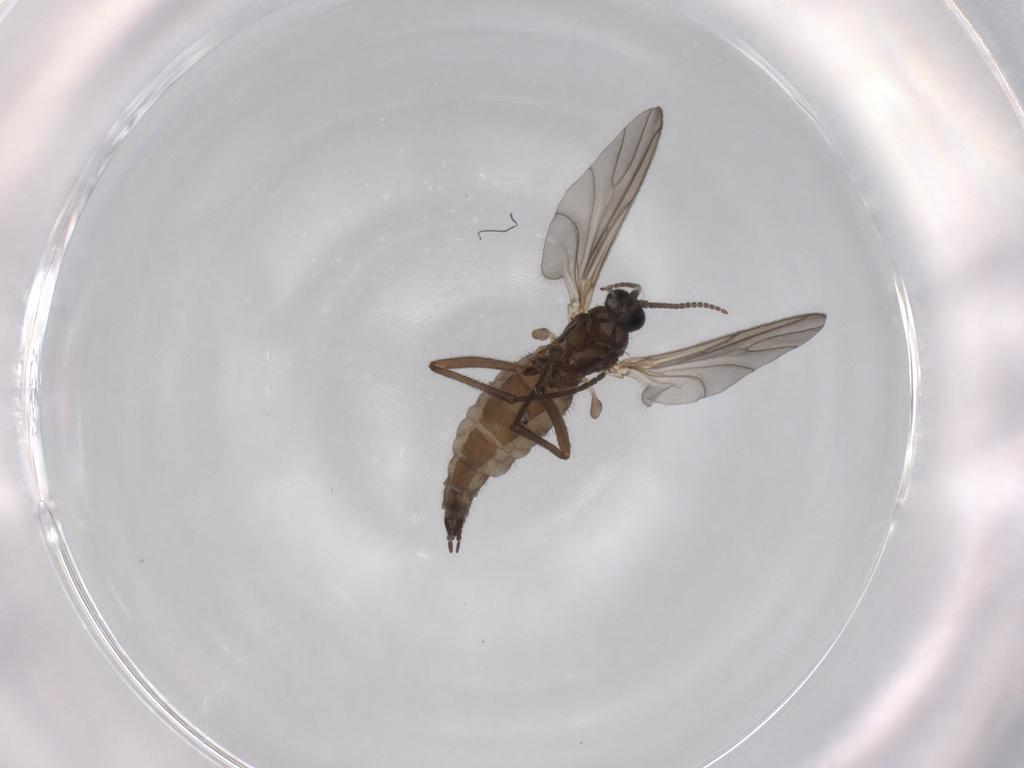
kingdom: Animalia
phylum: Arthropoda
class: Insecta
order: Diptera
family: Sciaridae
